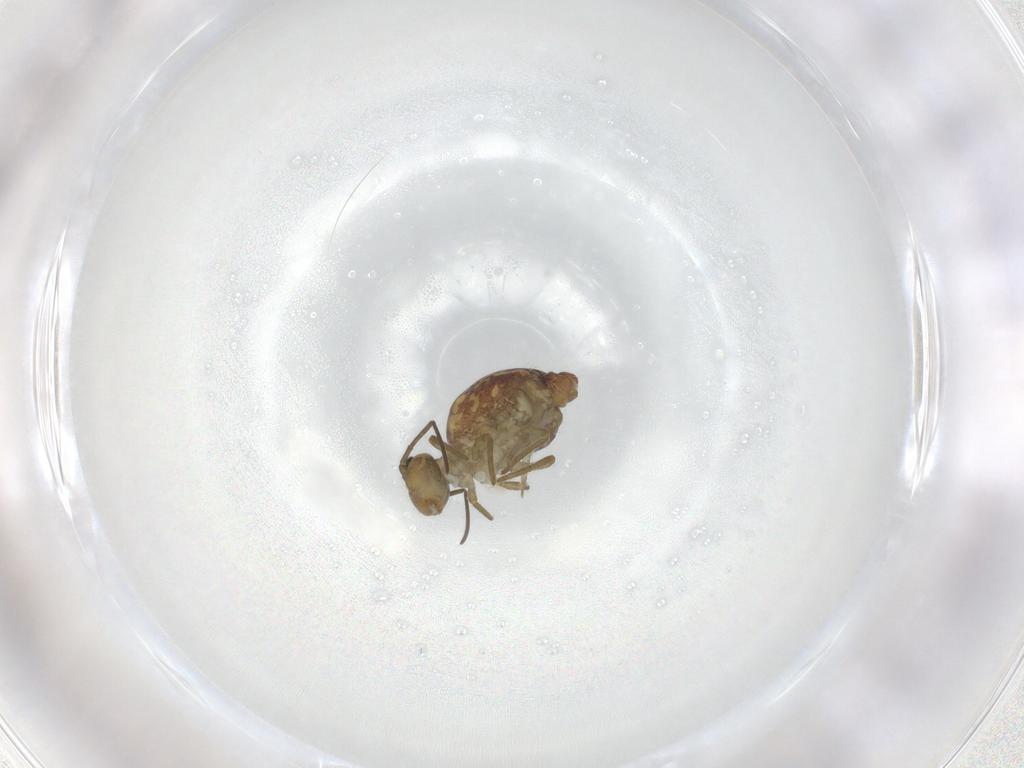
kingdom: Animalia
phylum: Arthropoda
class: Collembola
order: Symphypleona
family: Sminthuridae
